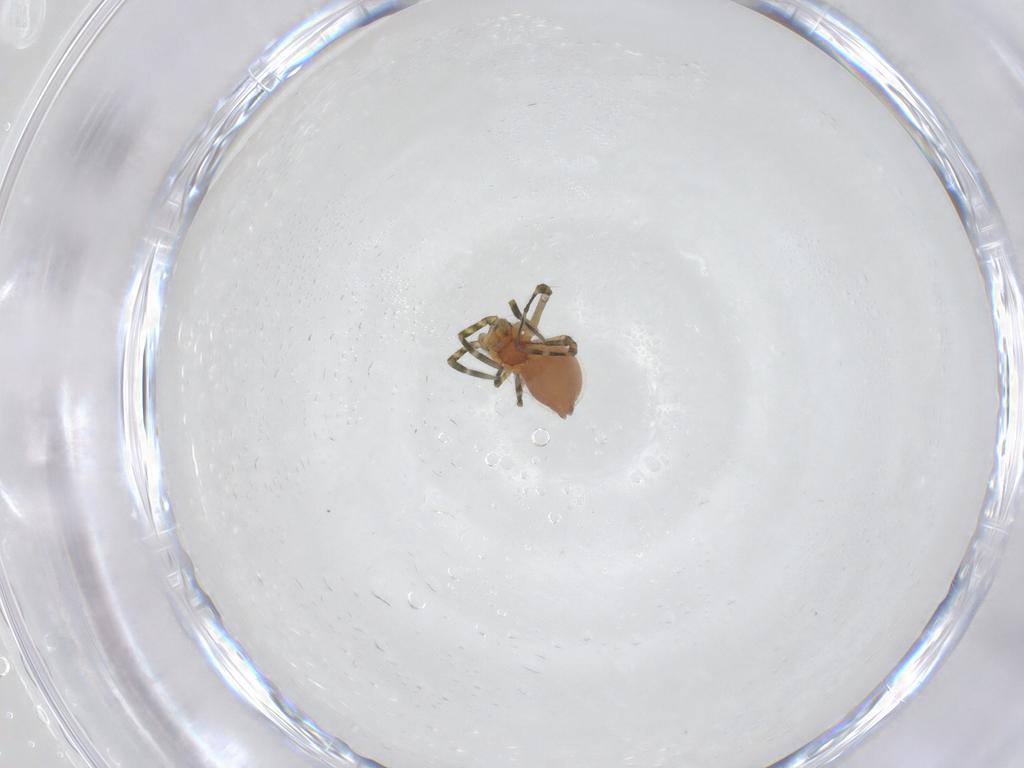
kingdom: Animalia
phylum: Arthropoda
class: Arachnida
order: Araneae
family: Linyphiidae
